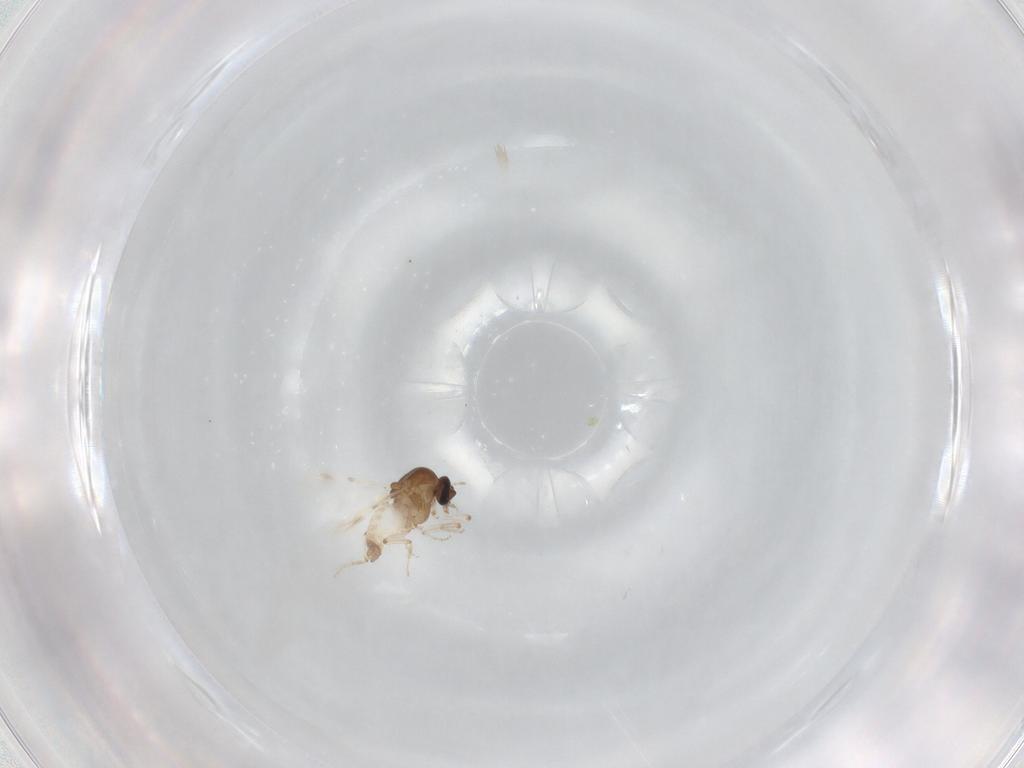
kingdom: Animalia
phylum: Arthropoda
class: Insecta
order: Diptera
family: Ceratopogonidae
